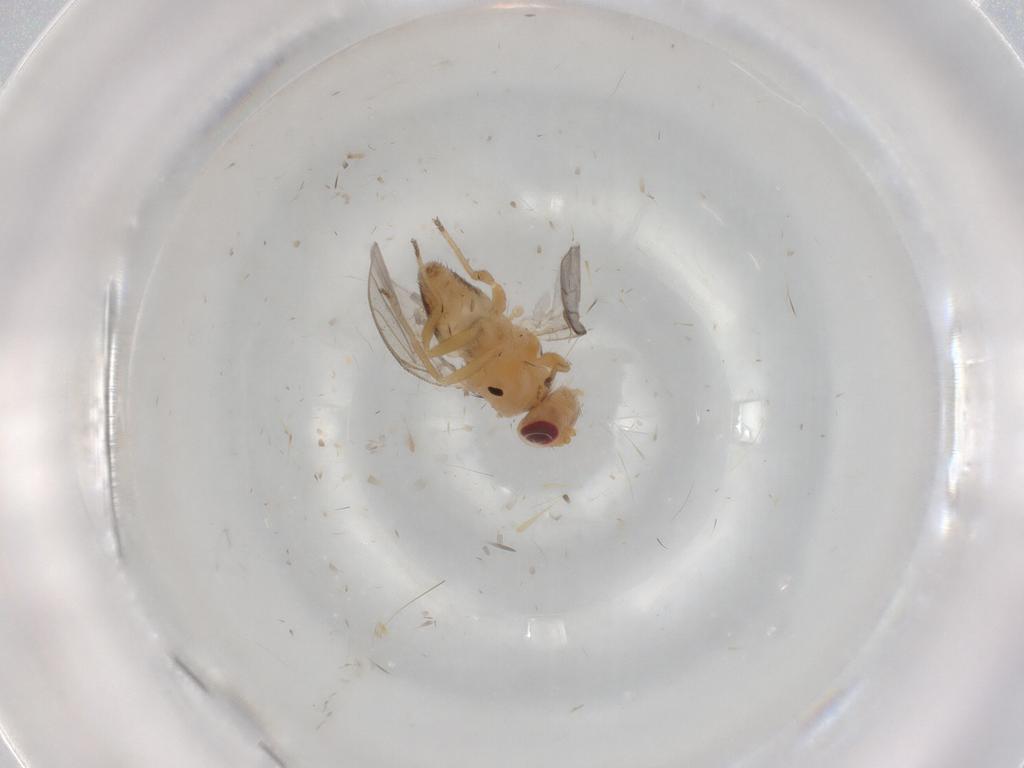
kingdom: Animalia
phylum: Arthropoda
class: Insecta
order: Diptera
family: Chloropidae
